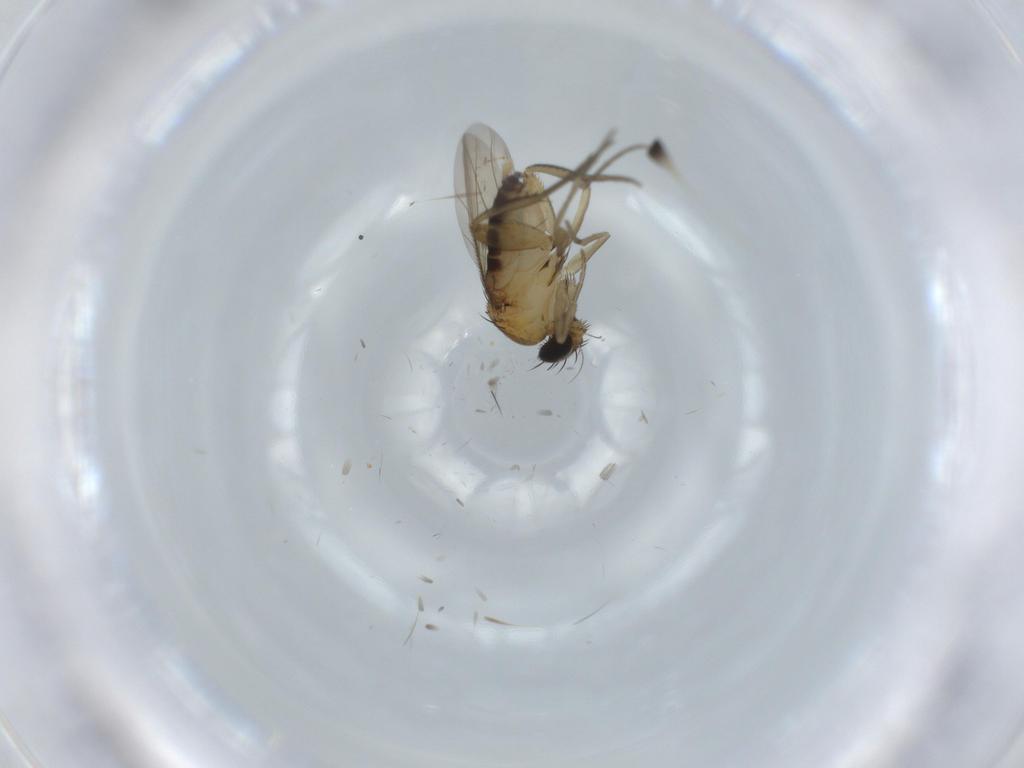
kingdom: Animalia
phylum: Arthropoda
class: Insecta
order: Diptera
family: Phoridae
